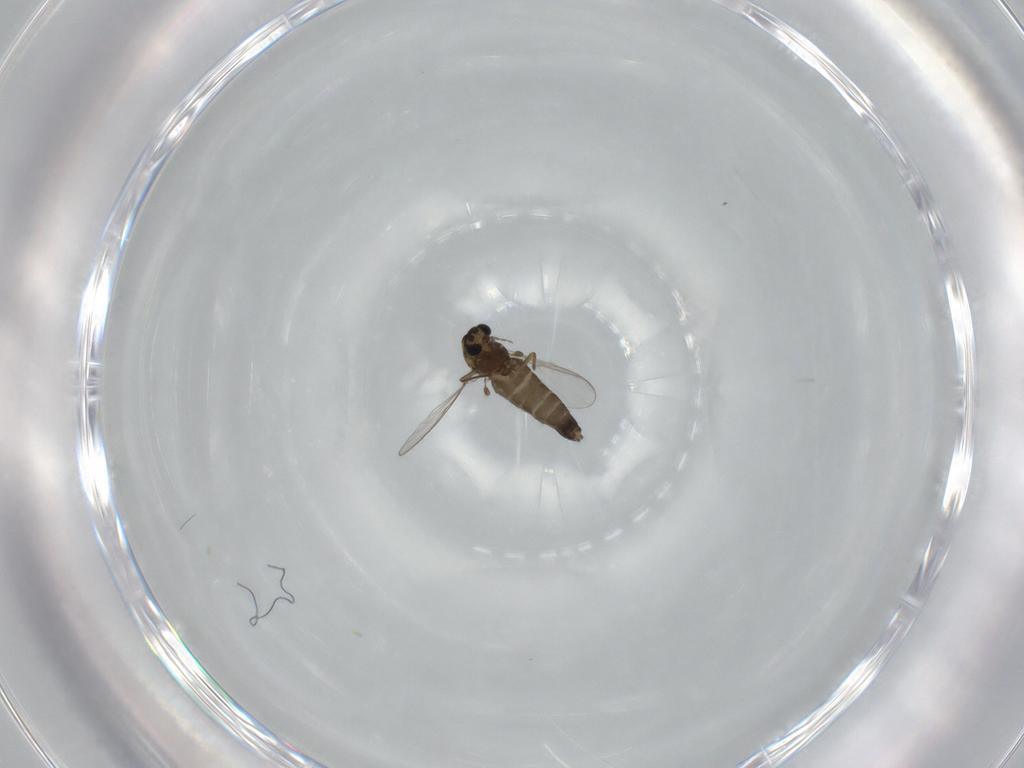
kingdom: Animalia
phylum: Arthropoda
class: Insecta
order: Diptera
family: Chironomidae
